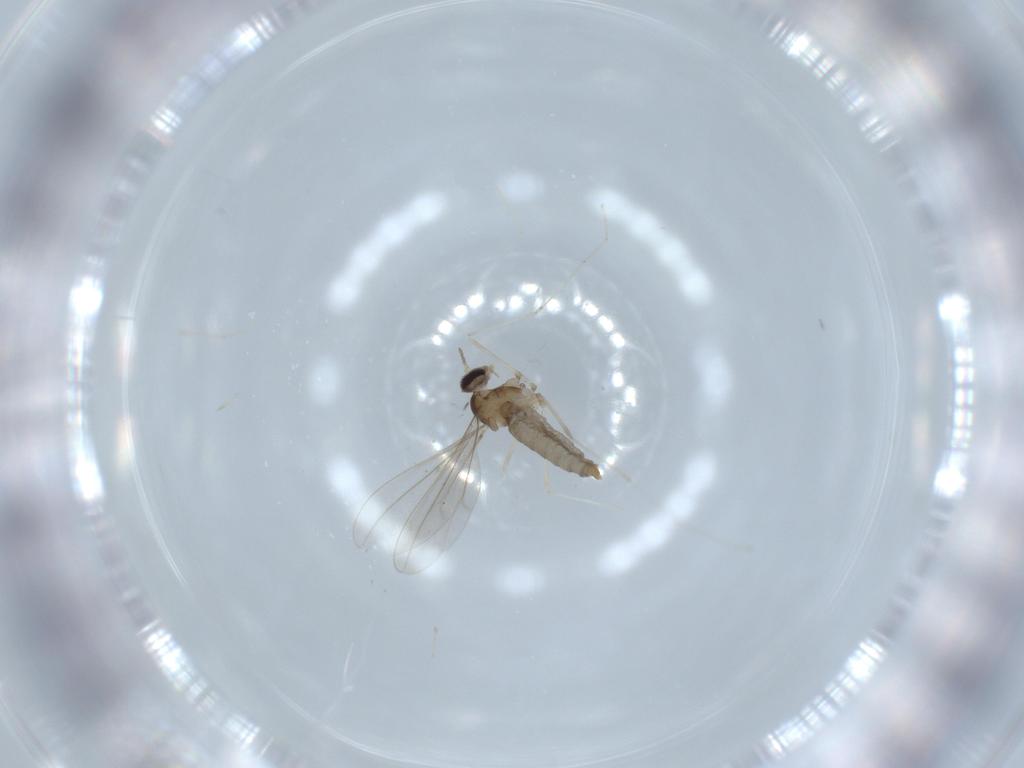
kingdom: Animalia
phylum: Arthropoda
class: Insecta
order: Diptera
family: Cecidomyiidae
